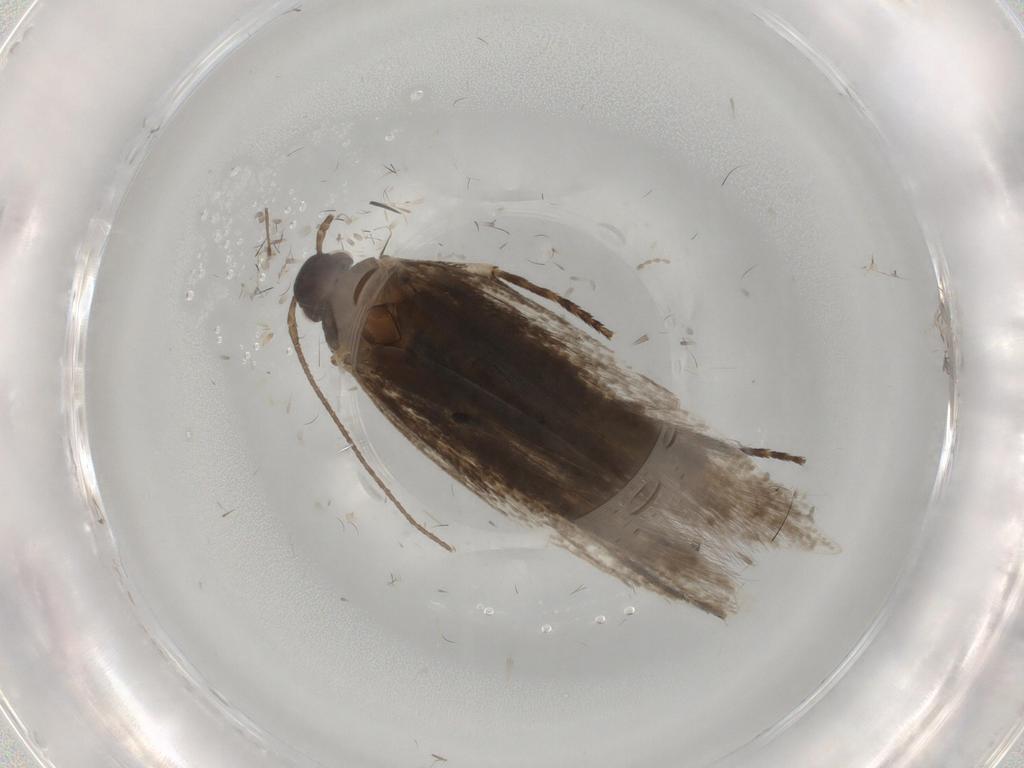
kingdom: Animalia
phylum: Arthropoda
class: Insecta
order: Lepidoptera
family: Gelechiidae
